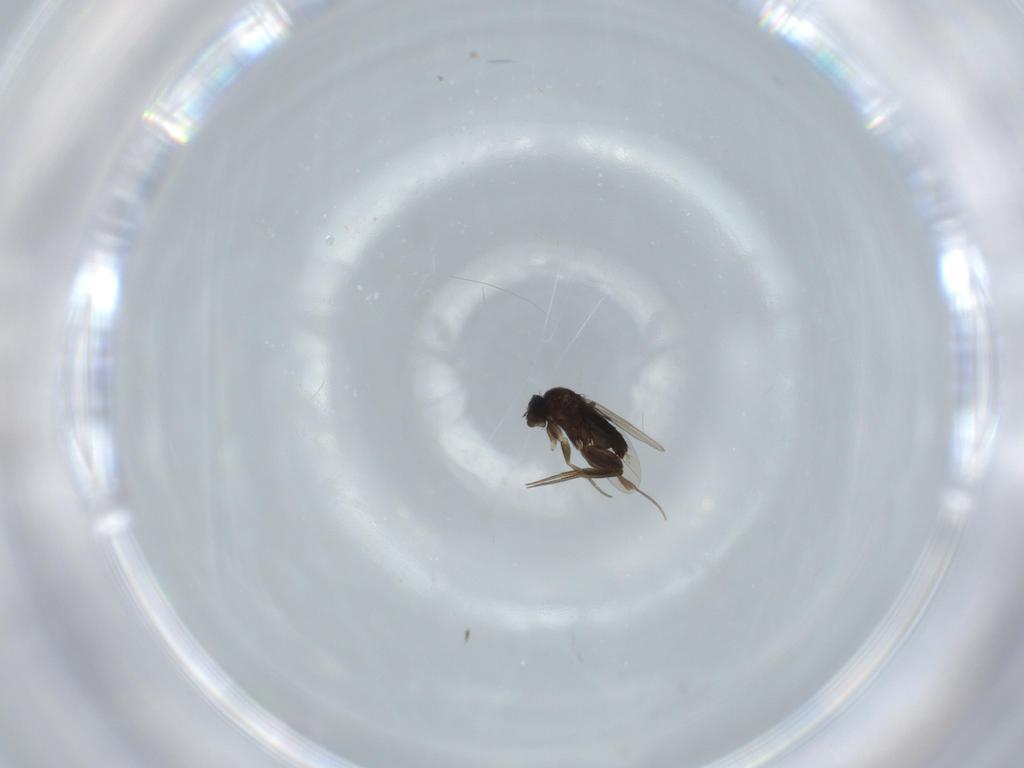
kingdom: Animalia
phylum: Arthropoda
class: Insecta
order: Diptera
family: Phoridae
